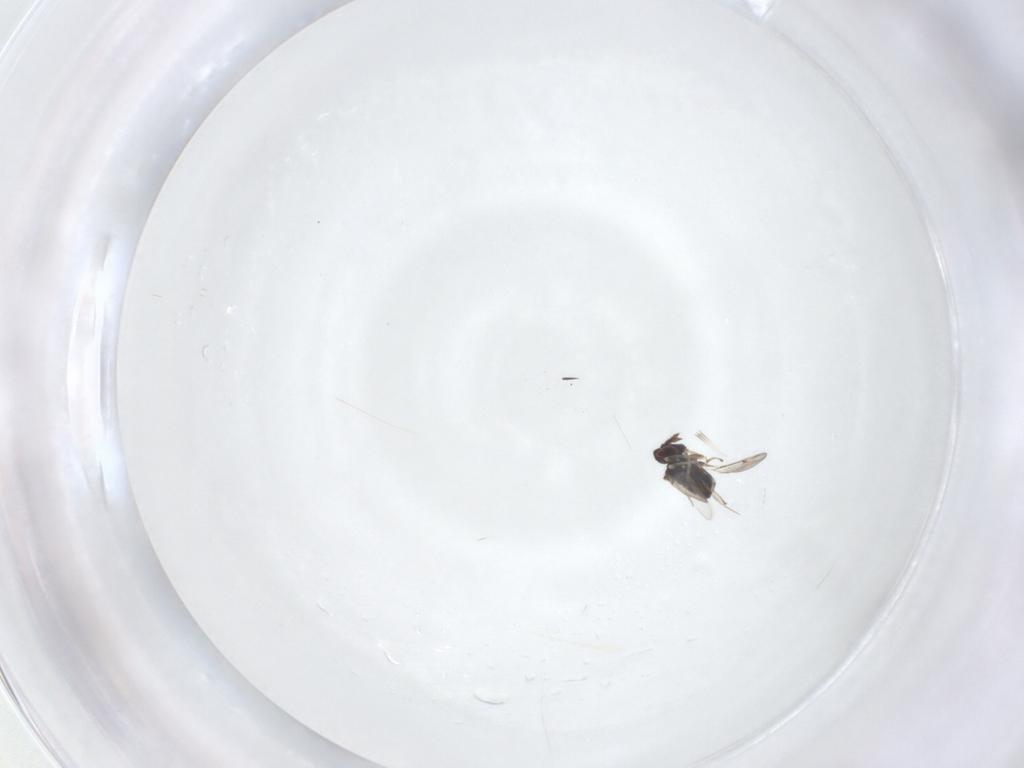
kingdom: Animalia
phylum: Arthropoda
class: Insecta
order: Hymenoptera
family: Eulophidae
